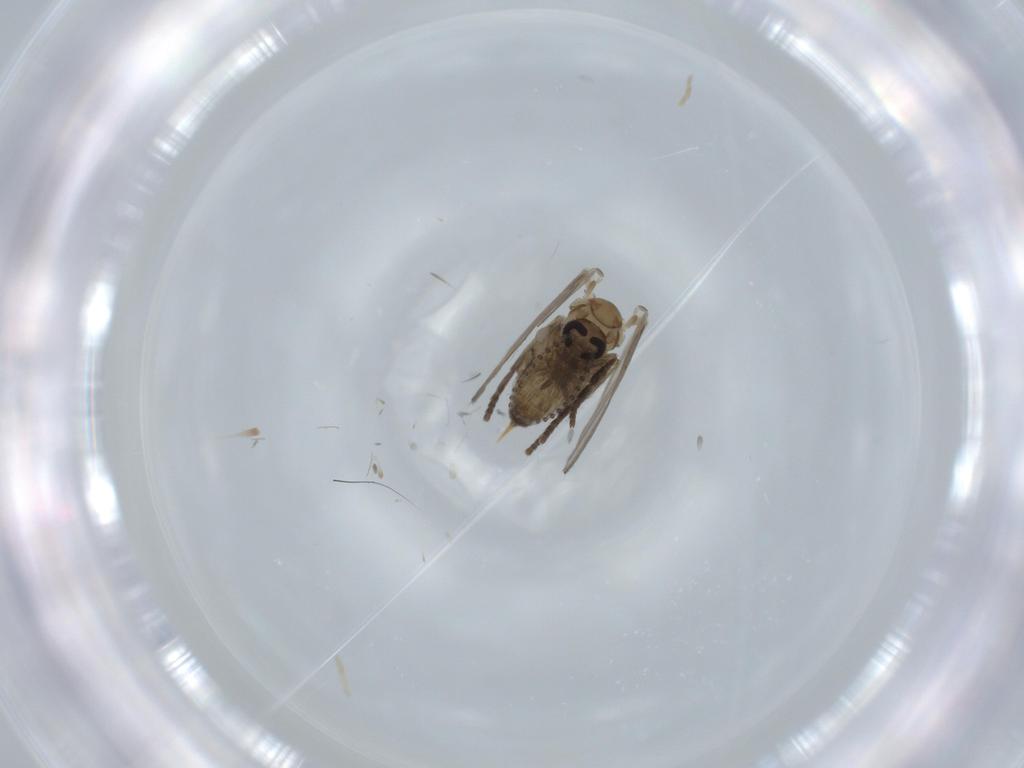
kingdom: Animalia
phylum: Arthropoda
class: Insecta
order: Diptera
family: Psychodidae
